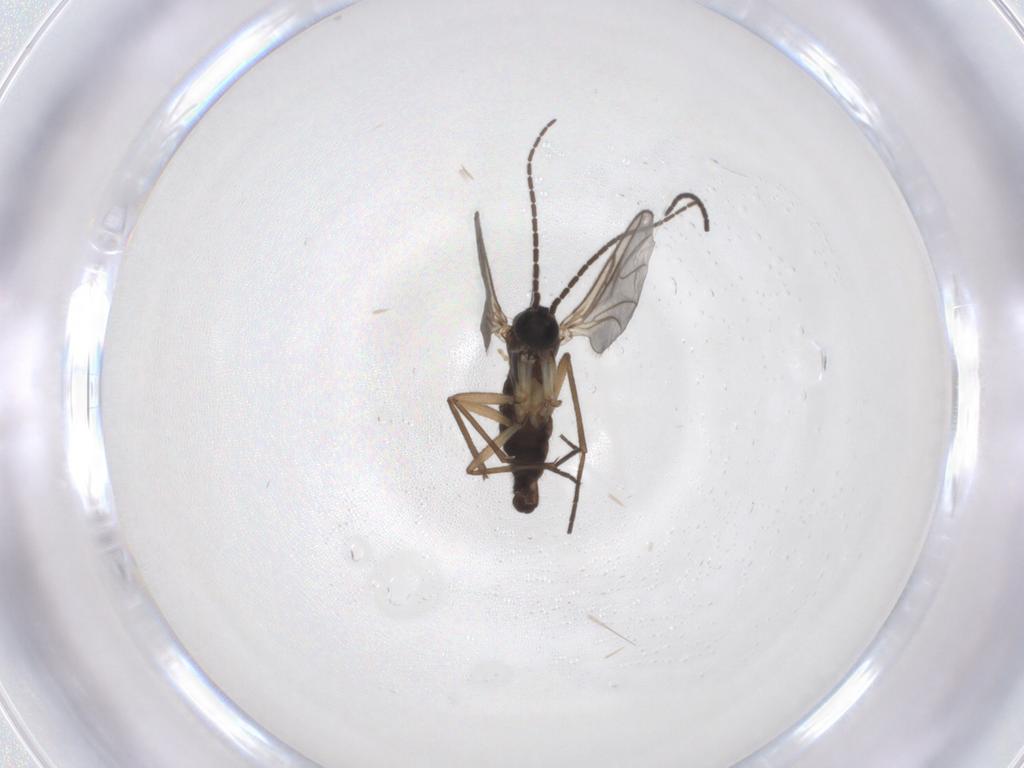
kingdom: Animalia
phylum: Arthropoda
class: Insecta
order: Diptera
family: Sciaridae
